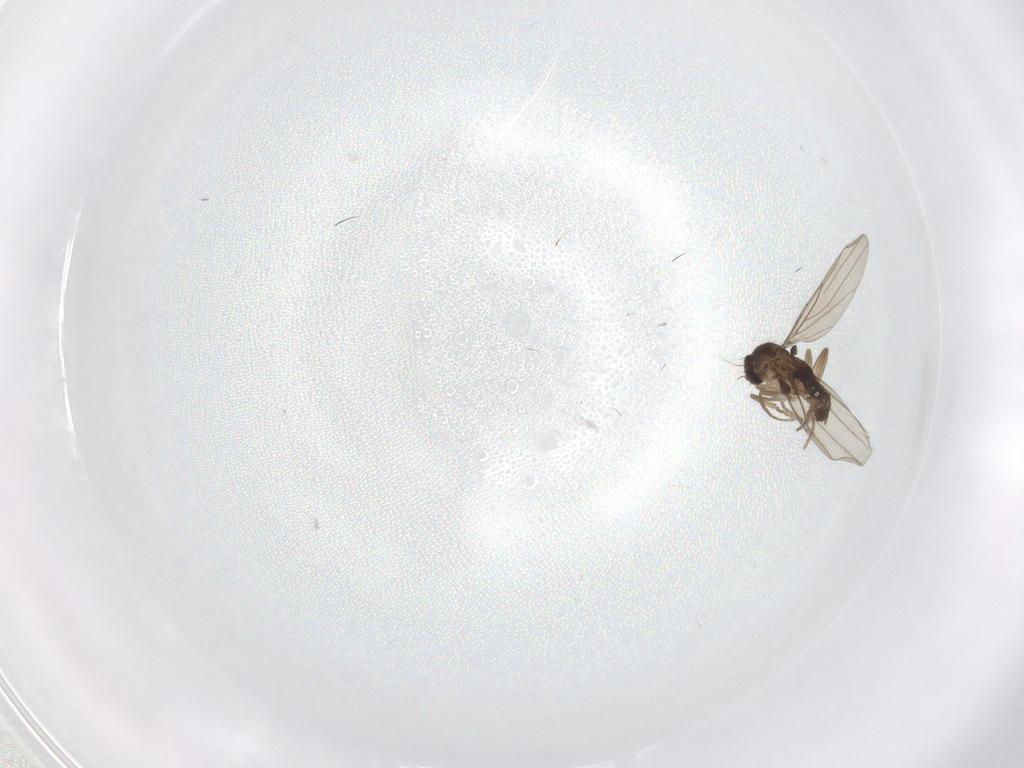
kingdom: Animalia
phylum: Arthropoda
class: Insecta
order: Diptera
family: Phoridae
